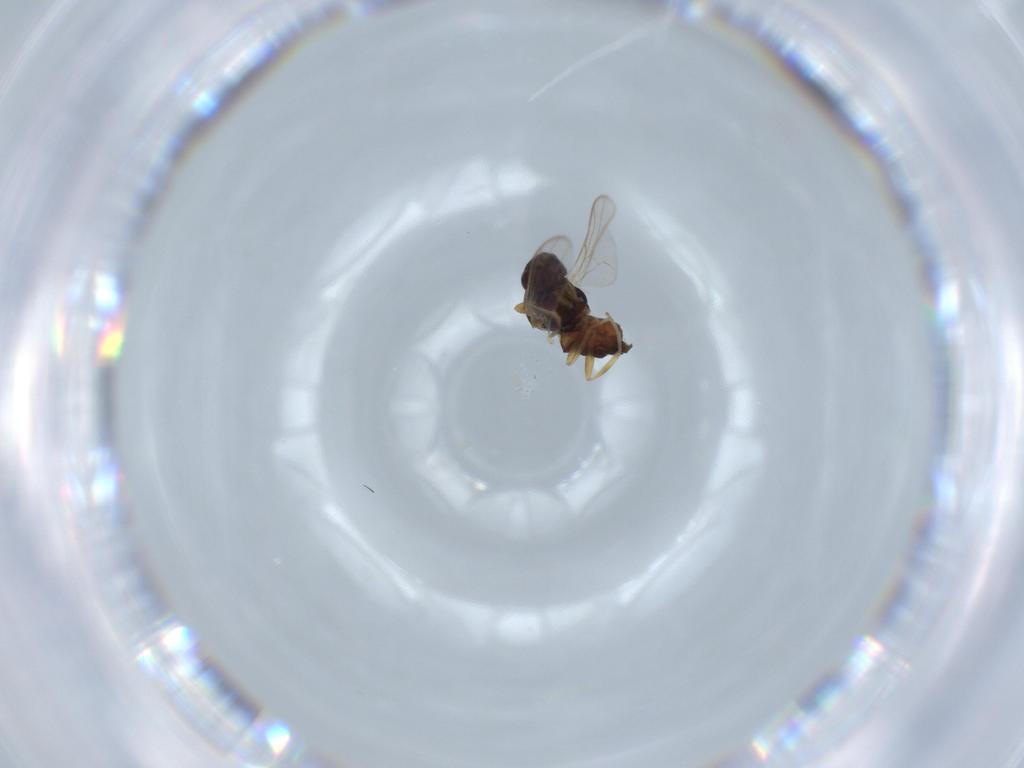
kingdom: Animalia
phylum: Arthropoda
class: Insecta
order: Diptera
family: Chloropidae
